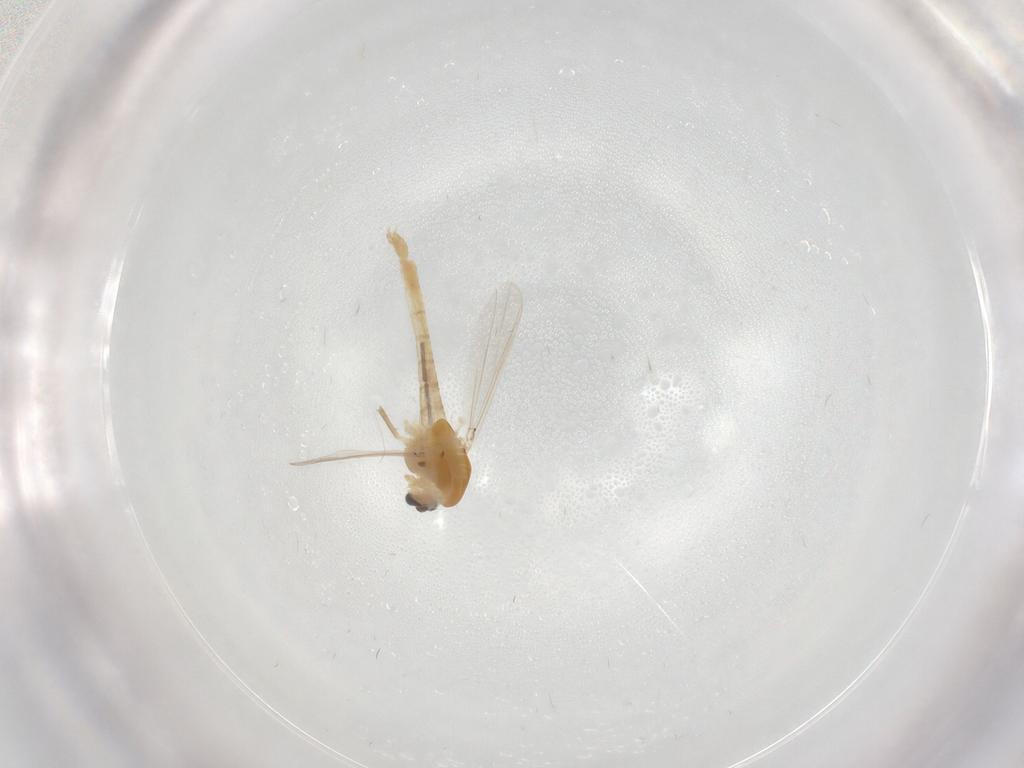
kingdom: Animalia
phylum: Arthropoda
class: Insecta
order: Diptera
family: Chironomidae
